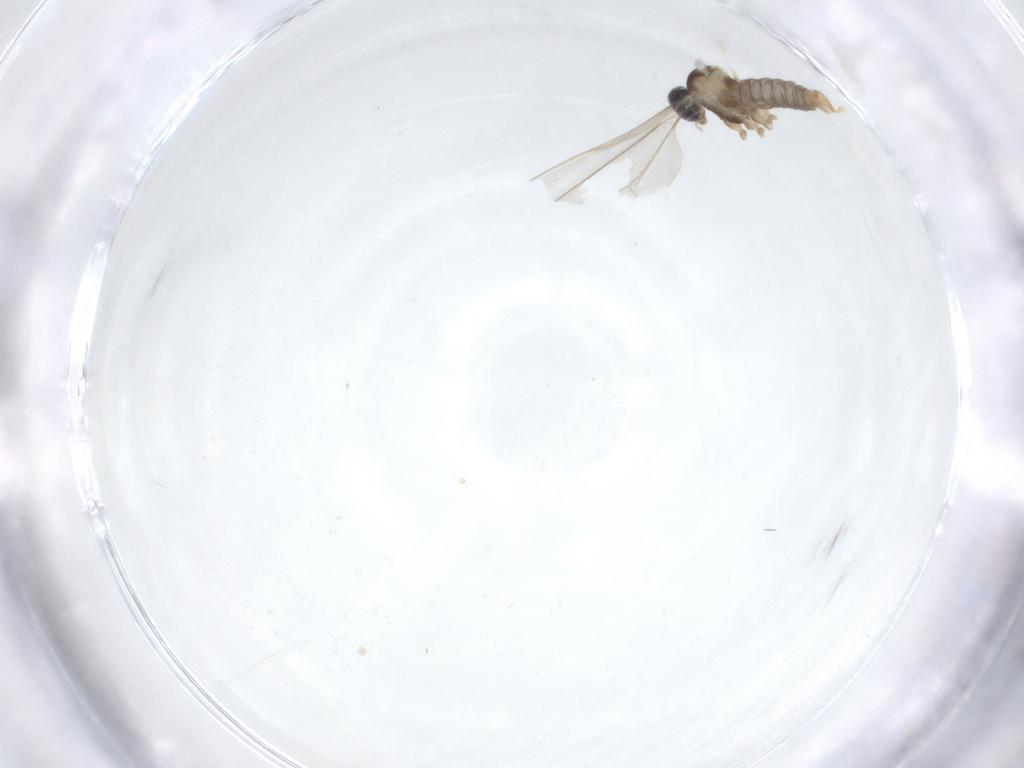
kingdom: Animalia
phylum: Arthropoda
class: Insecta
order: Diptera
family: Cecidomyiidae
